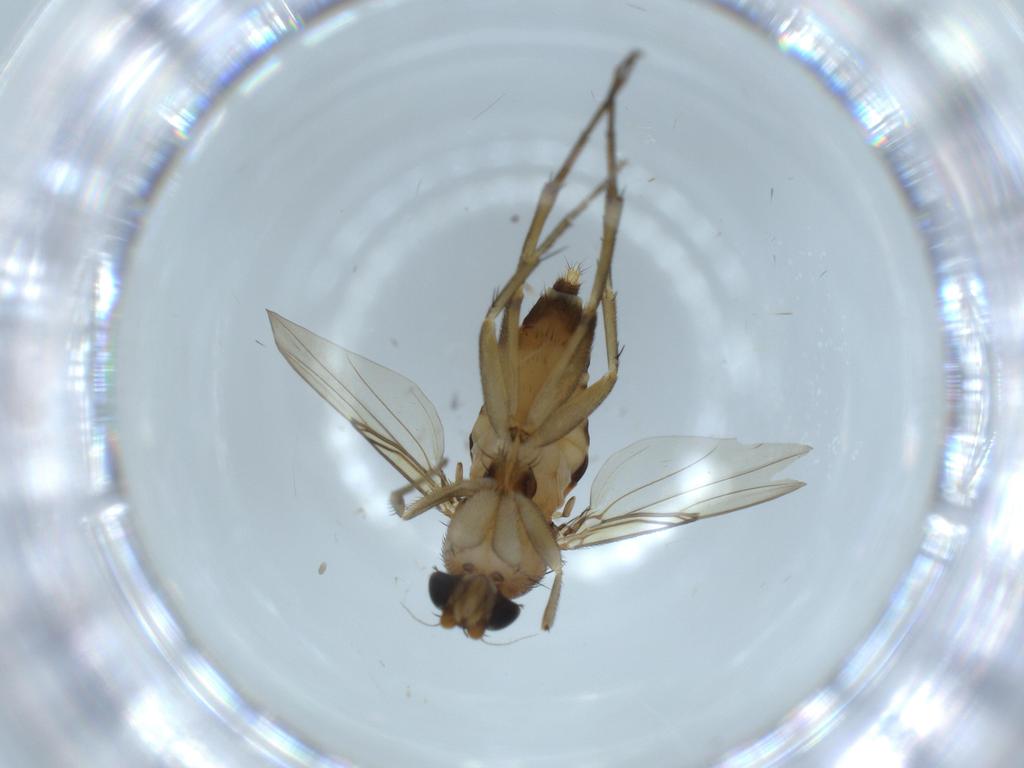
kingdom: Animalia
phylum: Arthropoda
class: Insecta
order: Diptera
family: Phoridae
